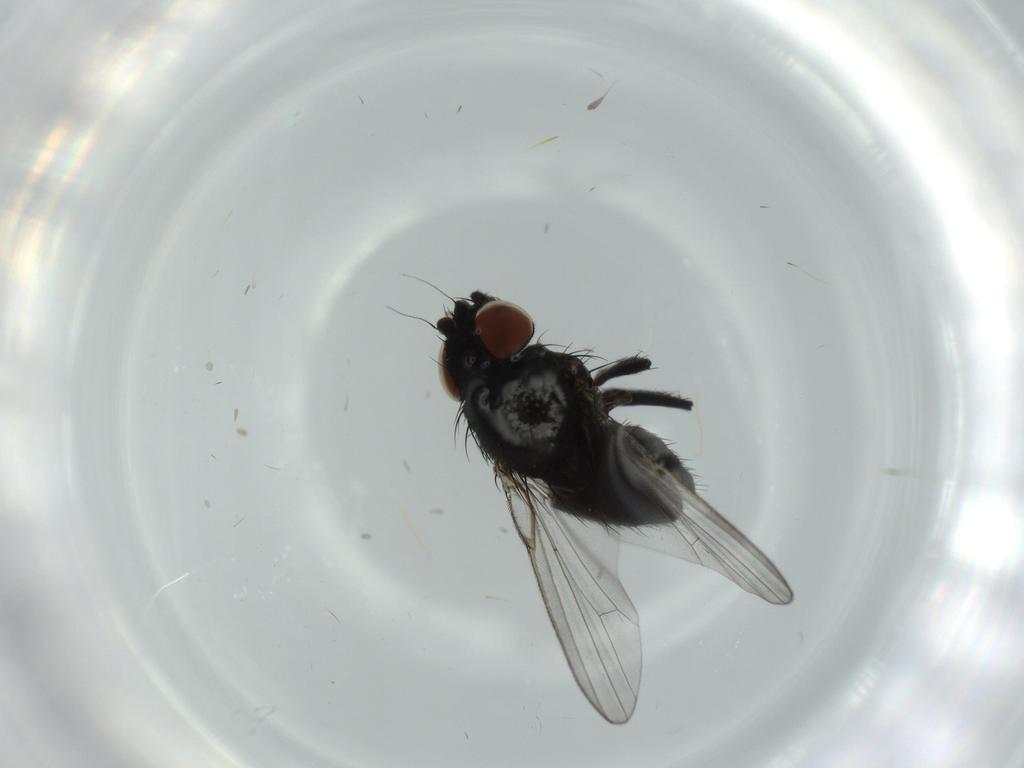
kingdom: Animalia
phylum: Arthropoda
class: Insecta
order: Diptera
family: Milichiidae
